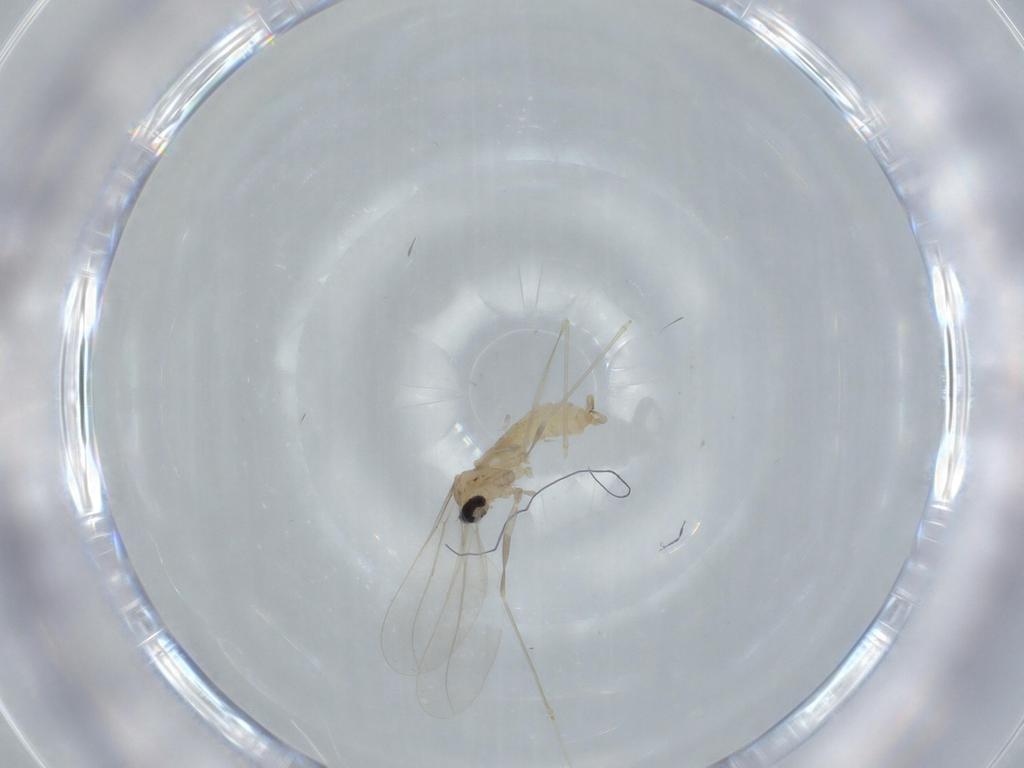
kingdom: Animalia
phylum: Arthropoda
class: Insecta
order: Diptera
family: Cecidomyiidae
